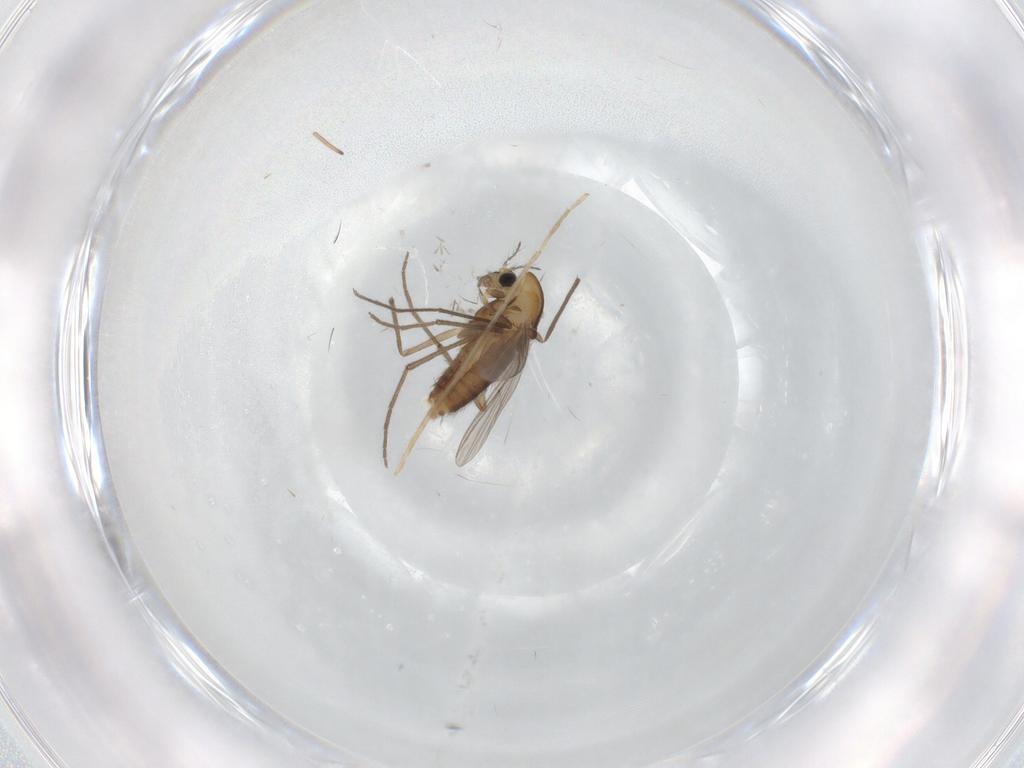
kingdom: Animalia
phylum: Arthropoda
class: Insecta
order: Diptera
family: Chironomidae
